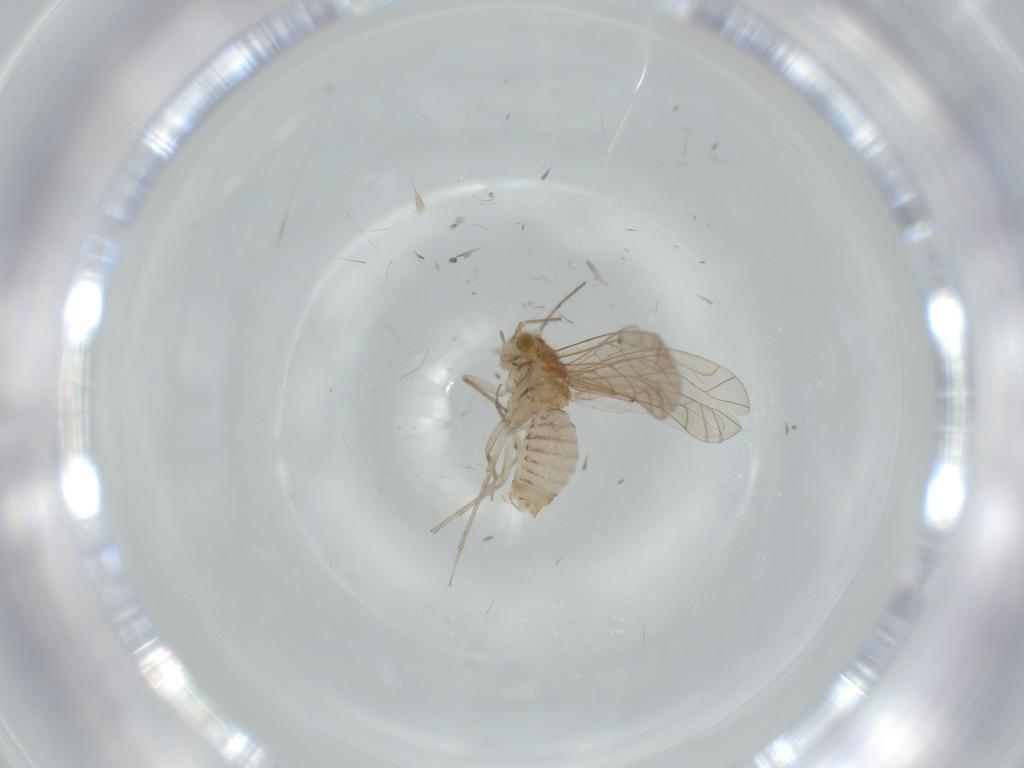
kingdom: Animalia
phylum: Arthropoda
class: Insecta
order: Psocodea
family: Lachesillidae
